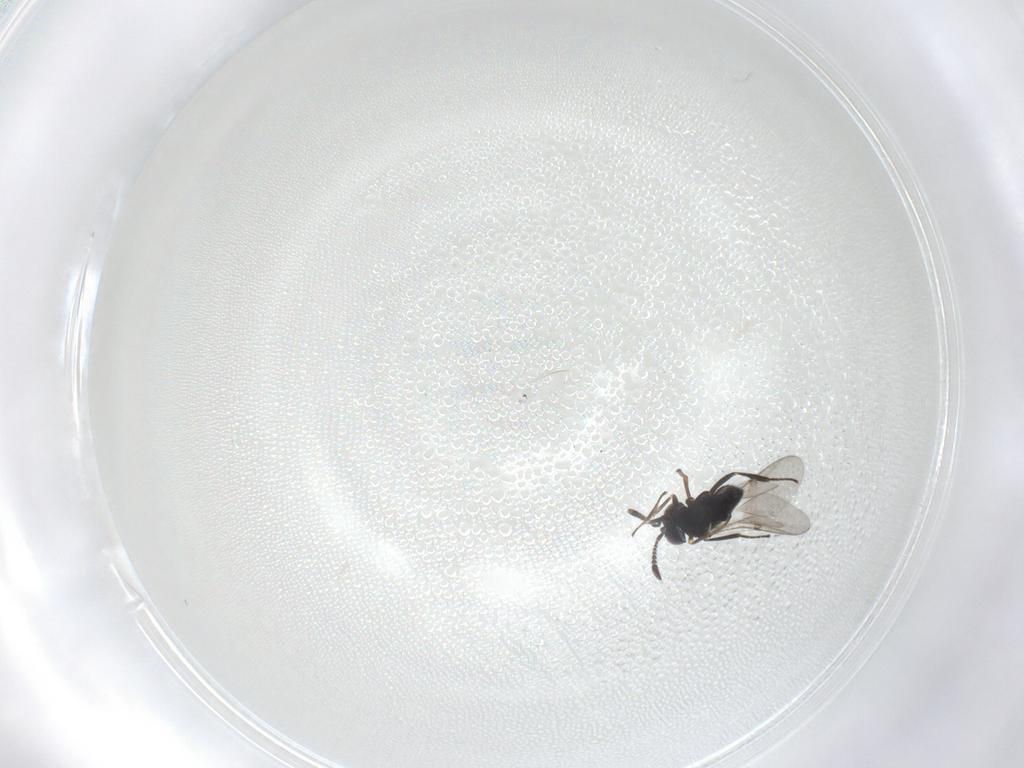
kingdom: Animalia
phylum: Arthropoda
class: Insecta
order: Hymenoptera
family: Encyrtidae
